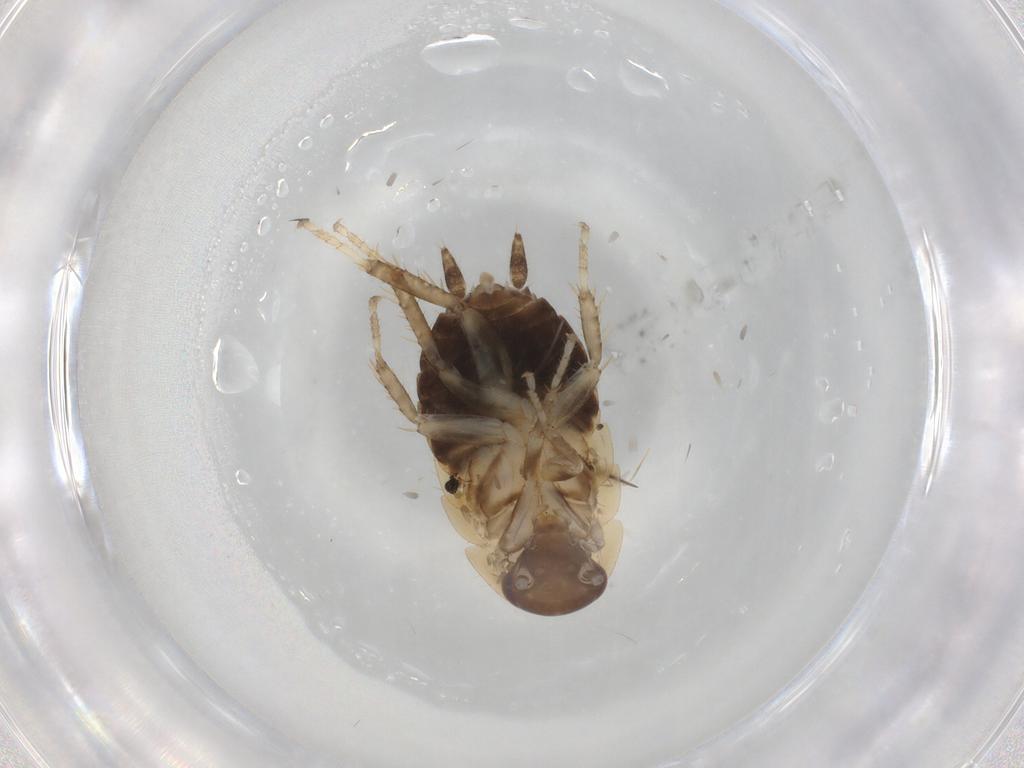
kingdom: Animalia
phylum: Arthropoda
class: Insecta
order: Blattodea
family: Ectobiidae
